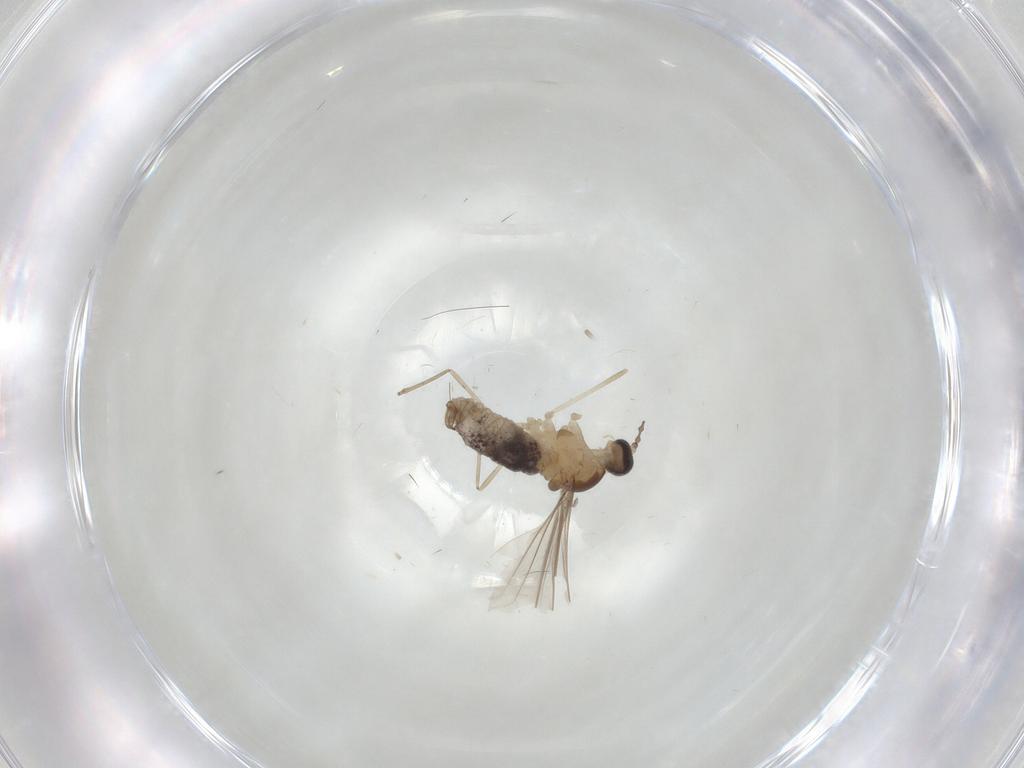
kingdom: Animalia
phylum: Arthropoda
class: Insecta
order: Diptera
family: Cecidomyiidae
